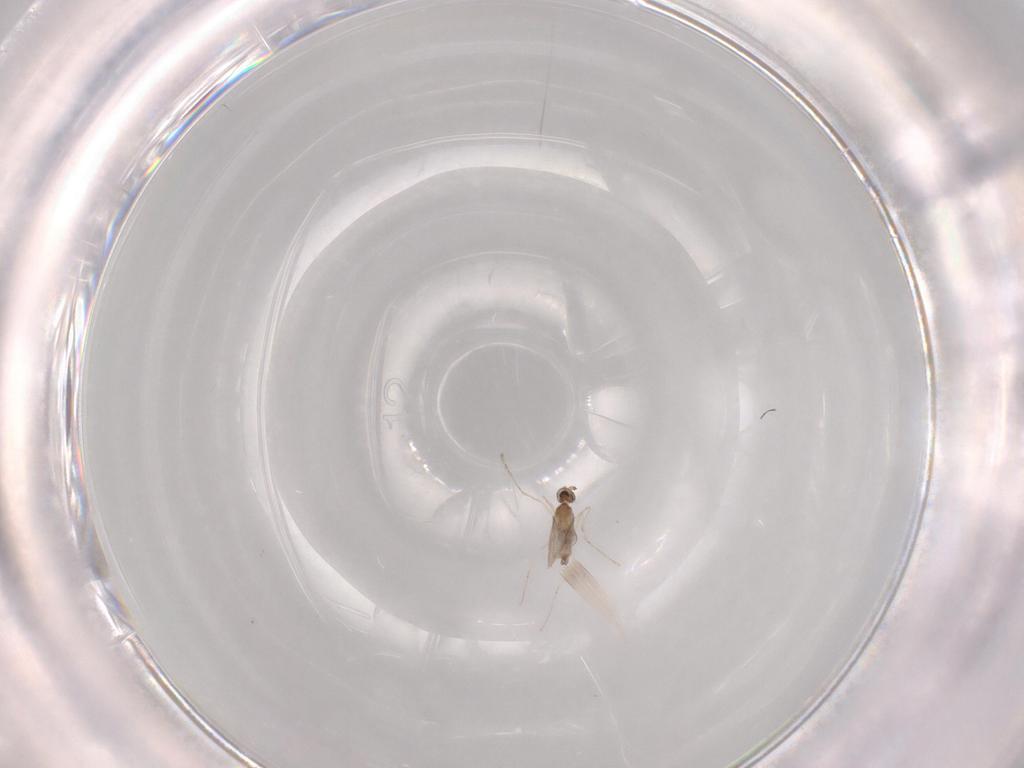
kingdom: Animalia
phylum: Arthropoda
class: Insecta
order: Diptera
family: Cecidomyiidae
